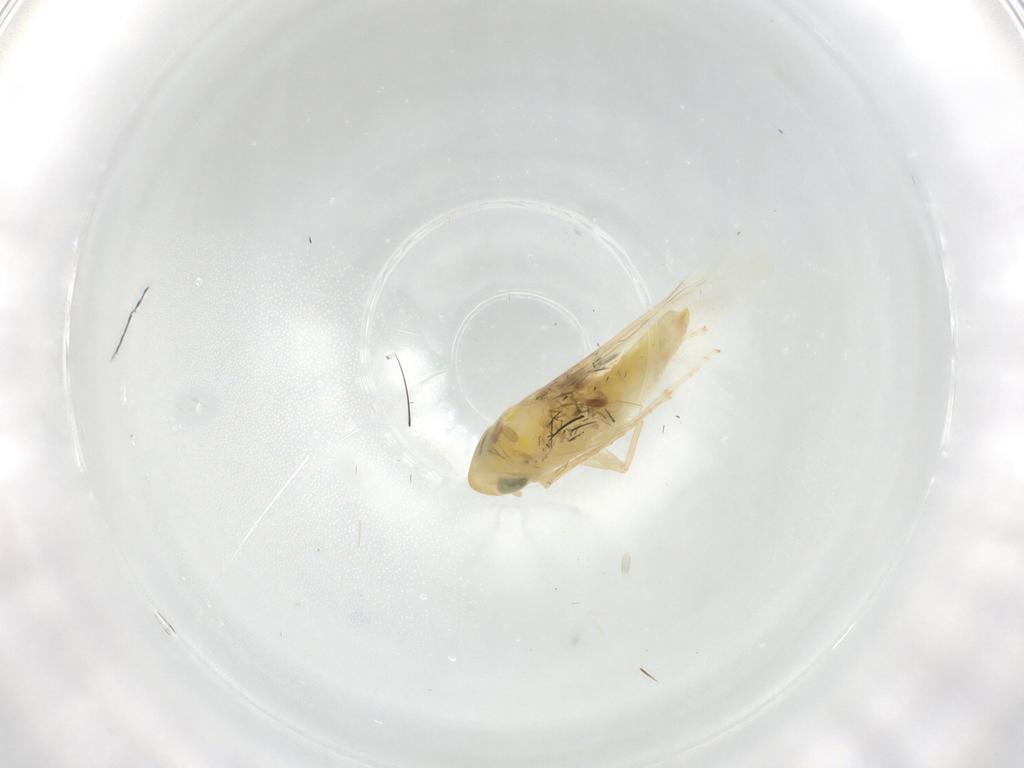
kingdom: Animalia
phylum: Arthropoda
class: Insecta
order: Hemiptera
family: Cicadellidae
